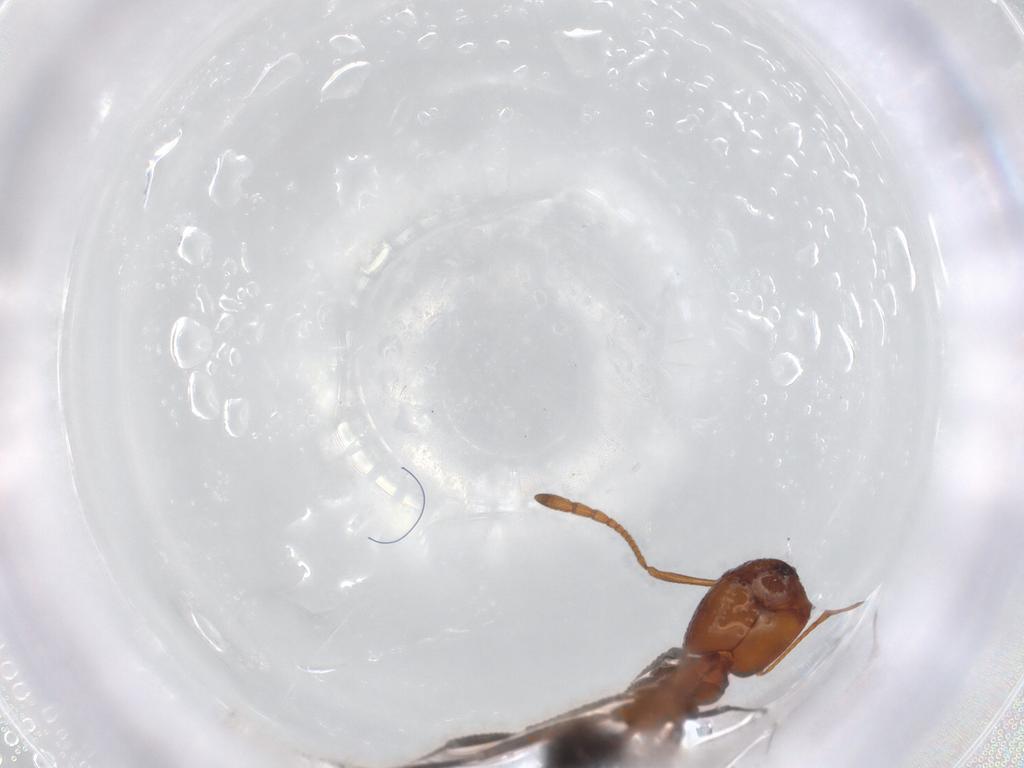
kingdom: Animalia
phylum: Arthropoda
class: Insecta
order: Hymenoptera
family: Formicidae
